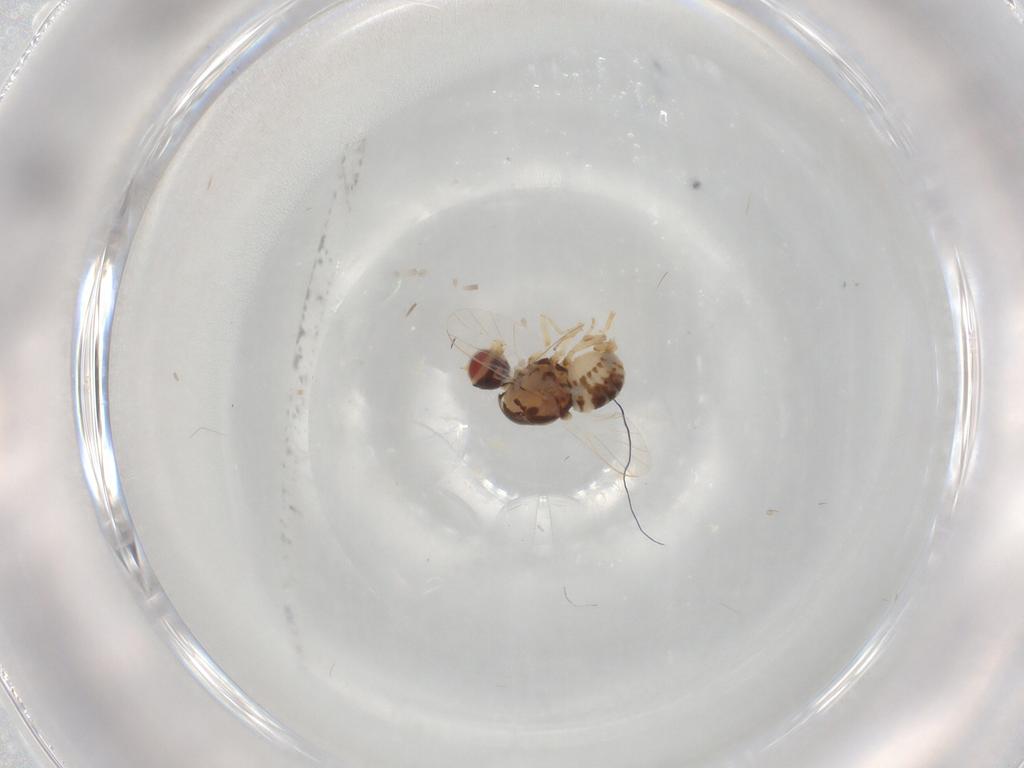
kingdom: Animalia
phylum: Arthropoda
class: Insecta
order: Diptera
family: Bombyliidae
